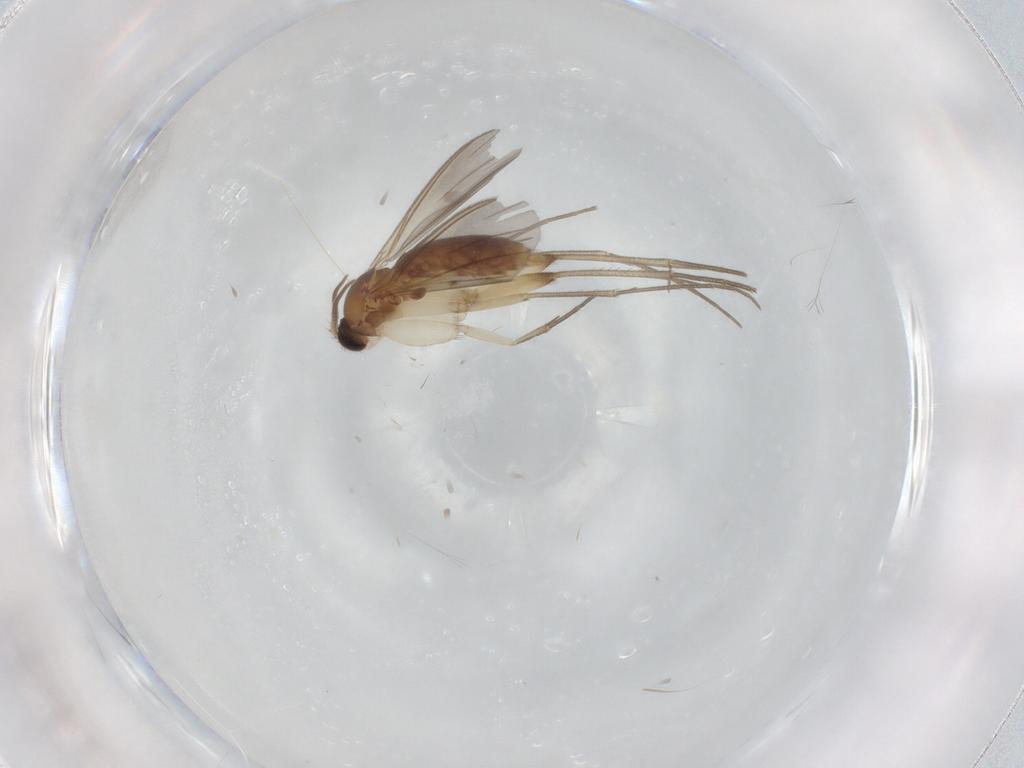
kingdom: Animalia
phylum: Arthropoda
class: Insecta
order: Diptera
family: Mycetophilidae
